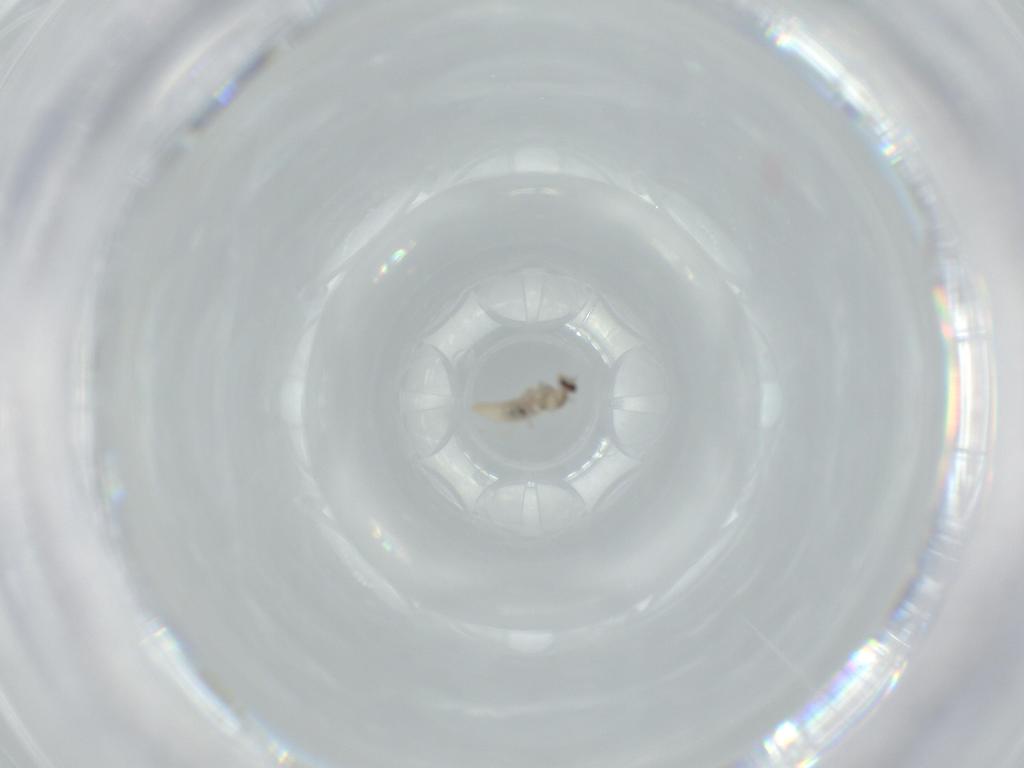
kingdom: Animalia
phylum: Arthropoda
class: Insecta
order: Diptera
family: Cecidomyiidae
